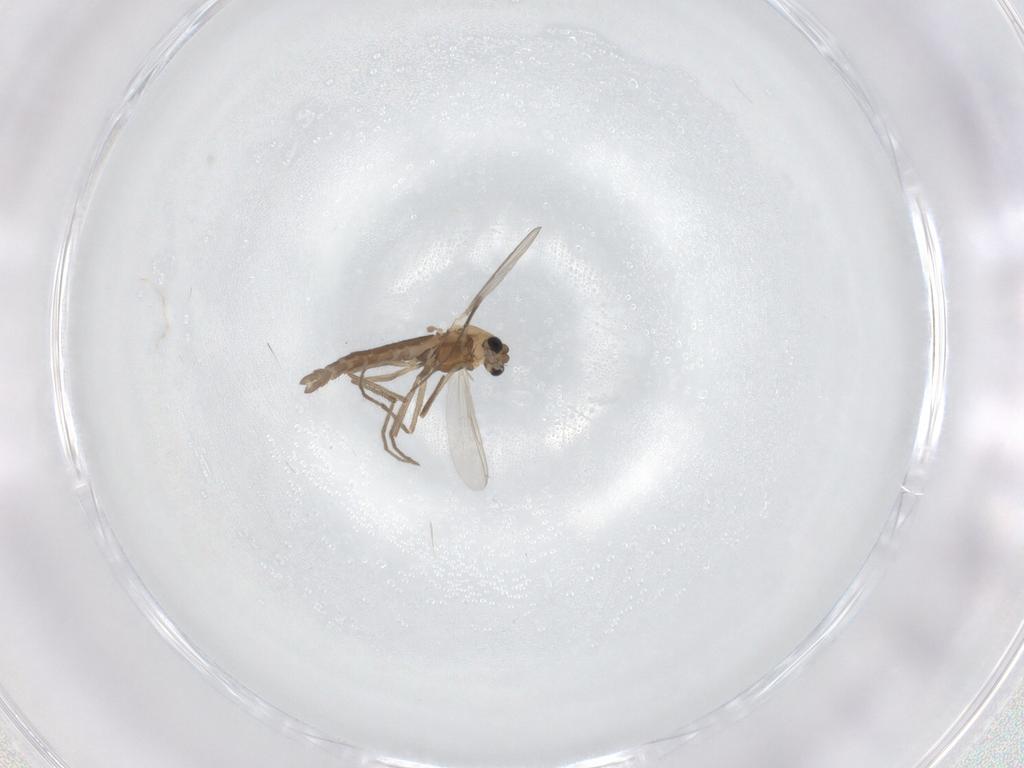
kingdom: Animalia
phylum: Arthropoda
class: Insecta
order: Diptera
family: Chironomidae
